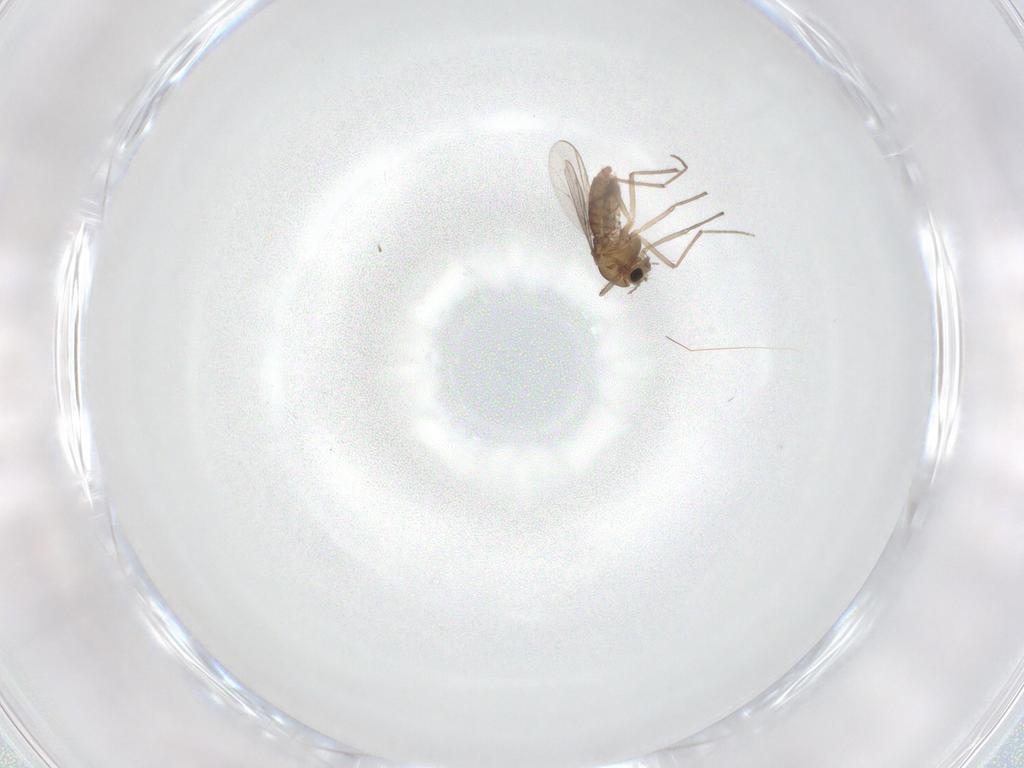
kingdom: Animalia
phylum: Arthropoda
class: Insecta
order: Diptera
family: Chironomidae
